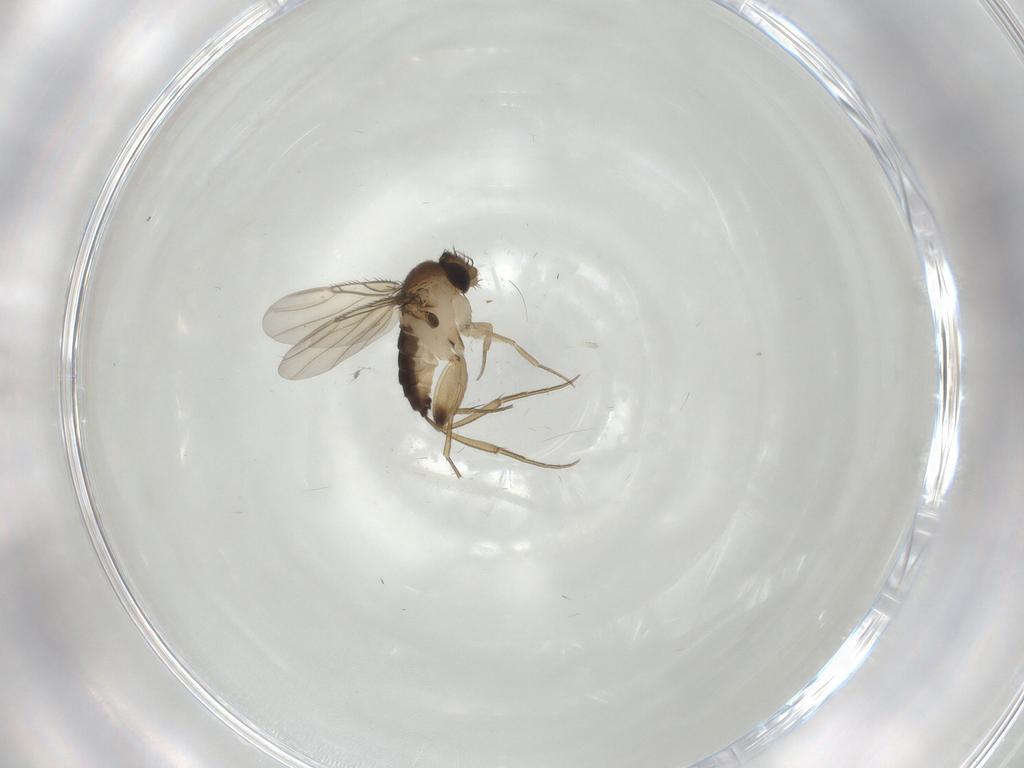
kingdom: Animalia
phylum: Arthropoda
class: Insecta
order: Diptera
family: Phoridae
